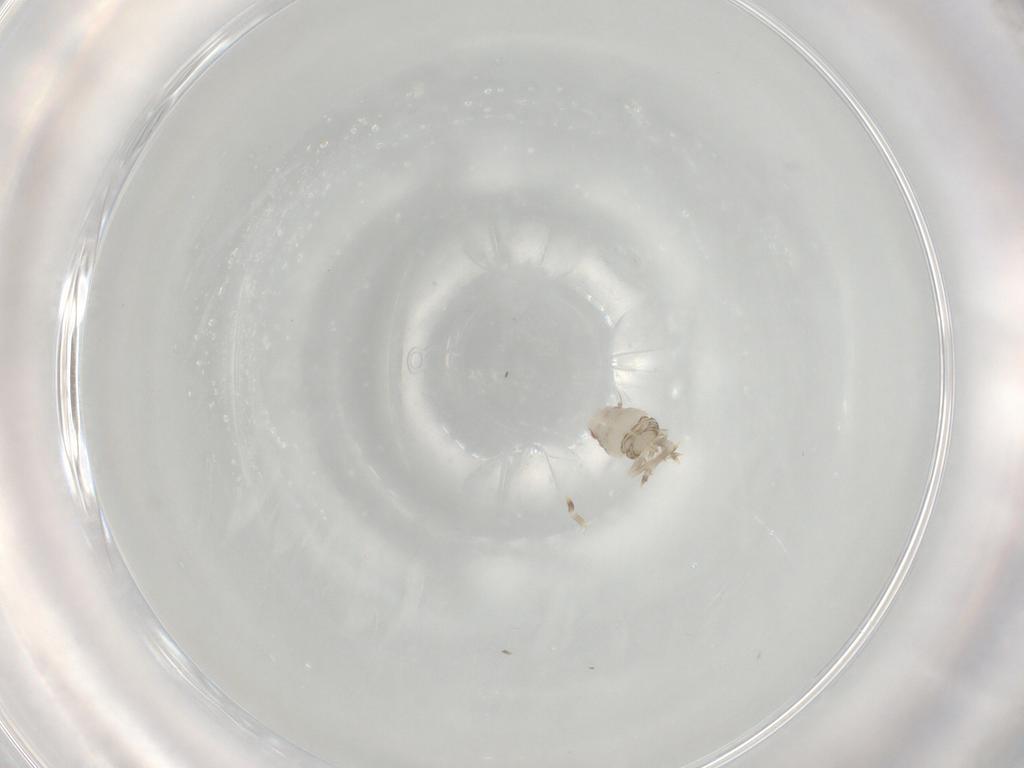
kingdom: Animalia
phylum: Arthropoda
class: Insecta
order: Hemiptera
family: Flatidae
